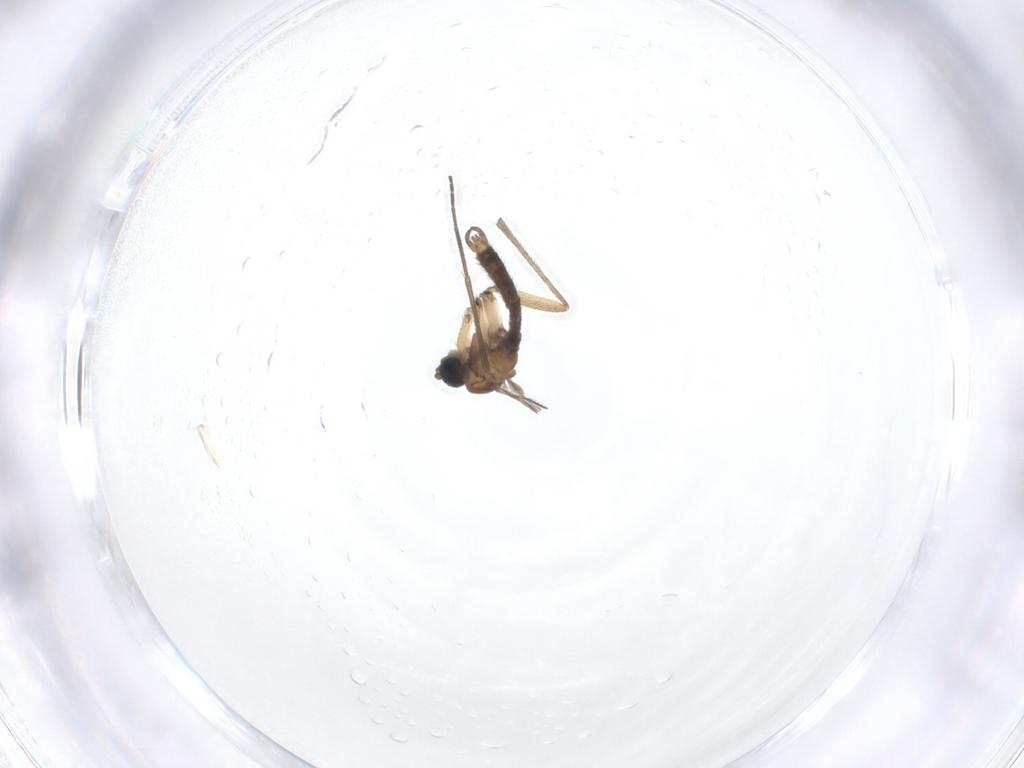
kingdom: Animalia
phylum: Arthropoda
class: Insecta
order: Diptera
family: Sciaridae
